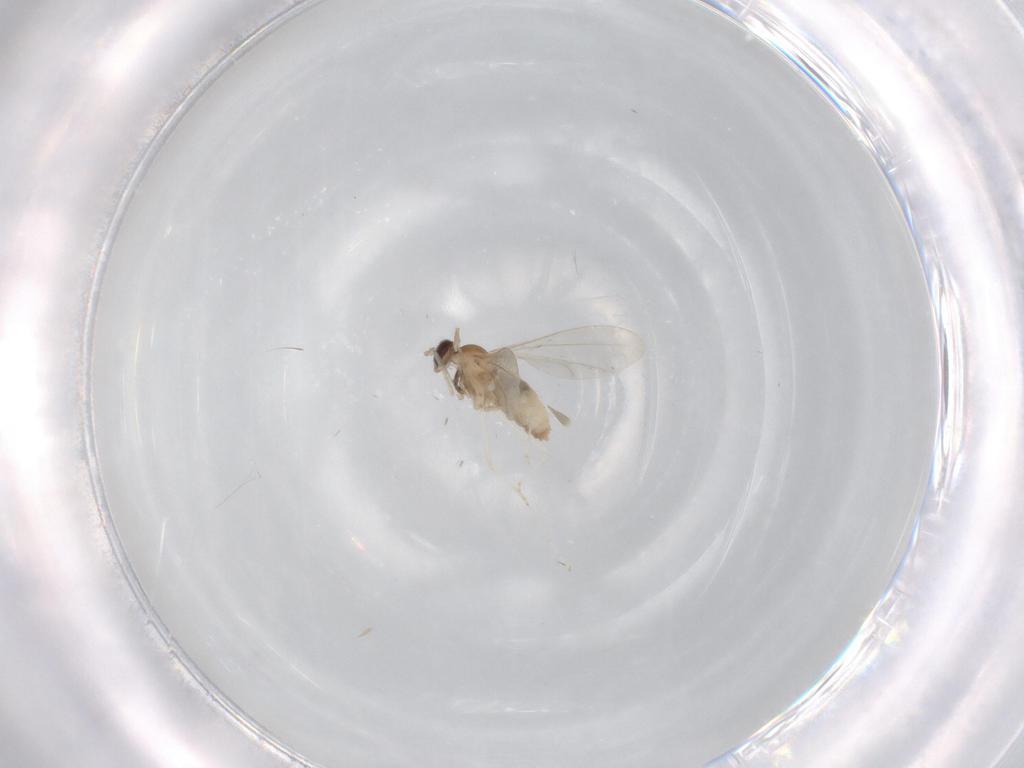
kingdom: Animalia
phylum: Arthropoda
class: Insecta
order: Diptera
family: Cecidomyiidae
